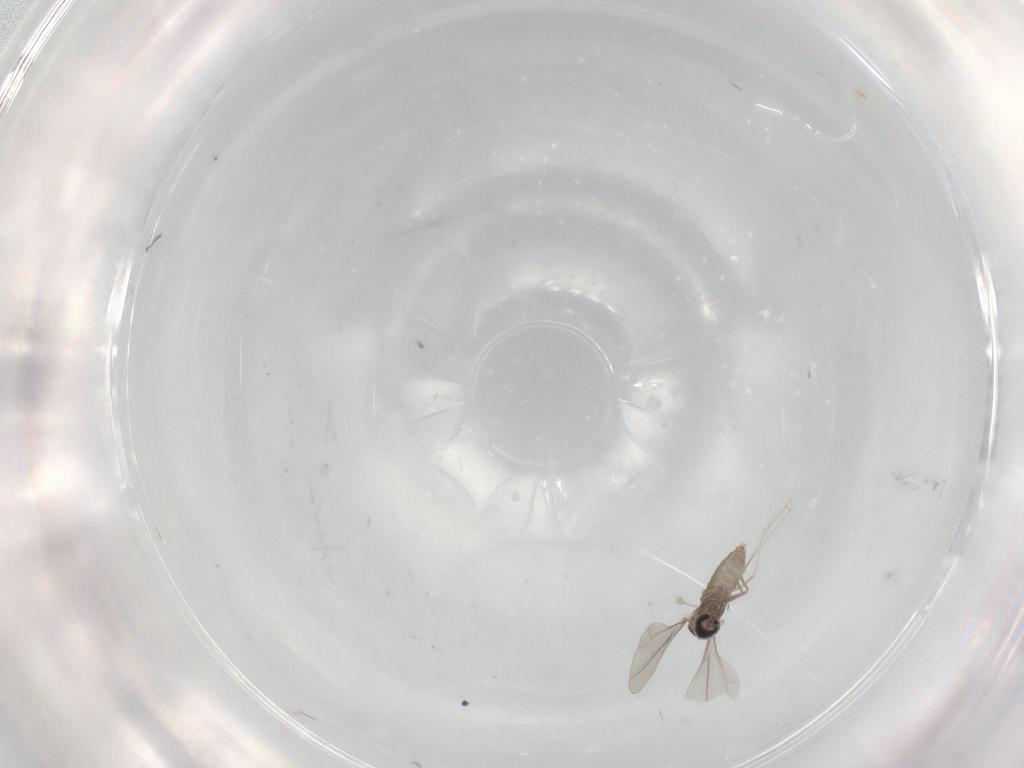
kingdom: Animalia
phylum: Arthropoda
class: Insecta
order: Diptera
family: Cecidomyiidae
